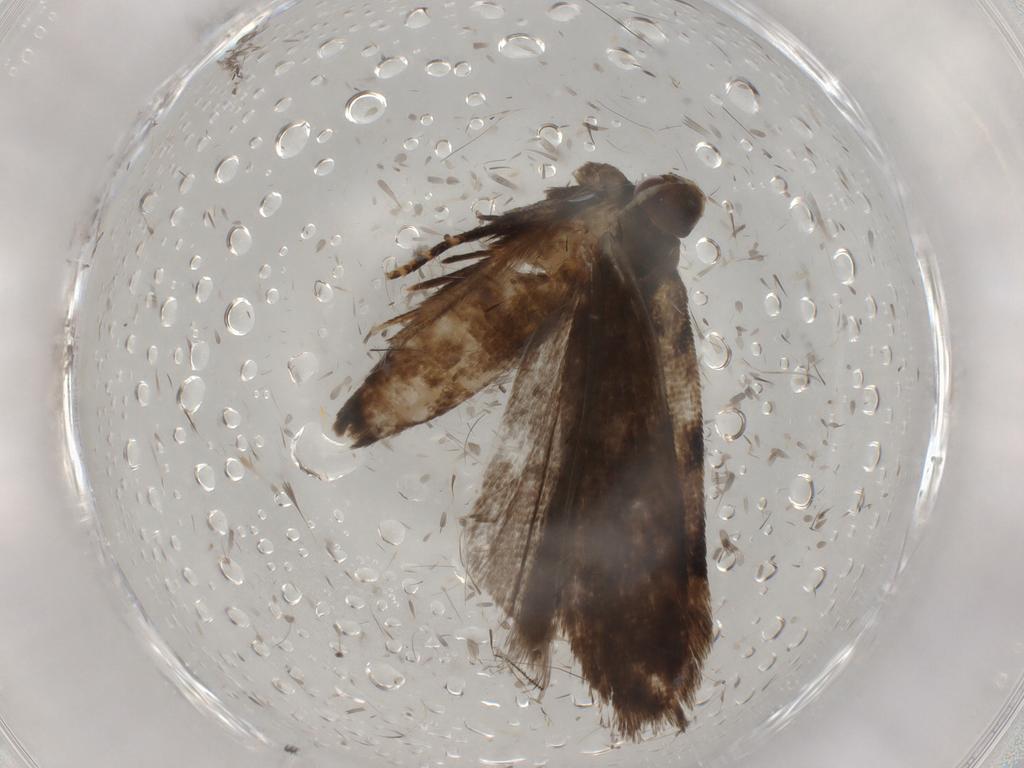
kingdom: Animalia
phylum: Arthropoda
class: Insecta
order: Lepidoptera
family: Gelechiidae
